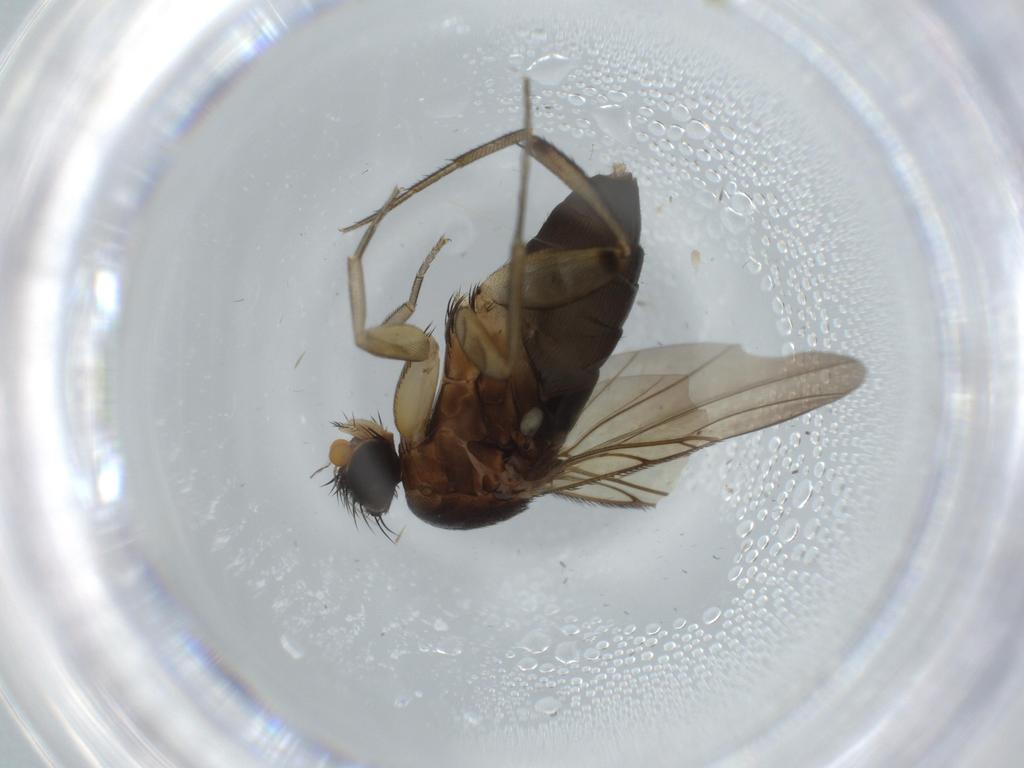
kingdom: Animalia
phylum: Arthropoda
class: Insecta
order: Diptera
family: Phoridae
